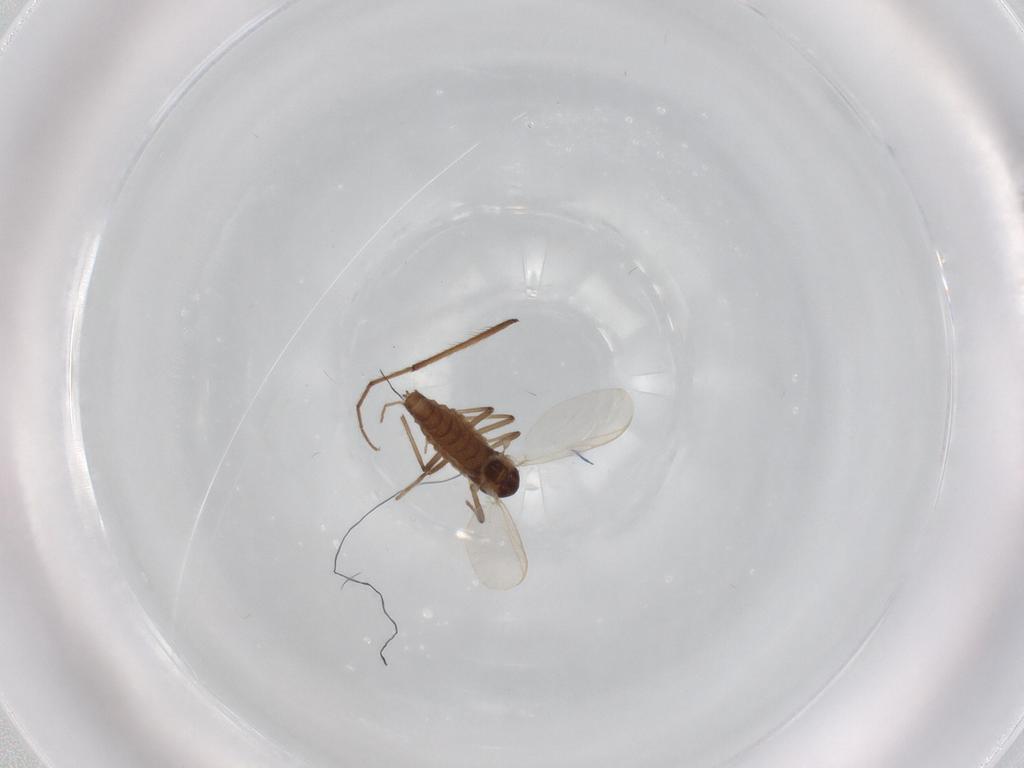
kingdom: Animalia
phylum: Arthropoda
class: Insecta
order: Diptera
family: Chironomidae
